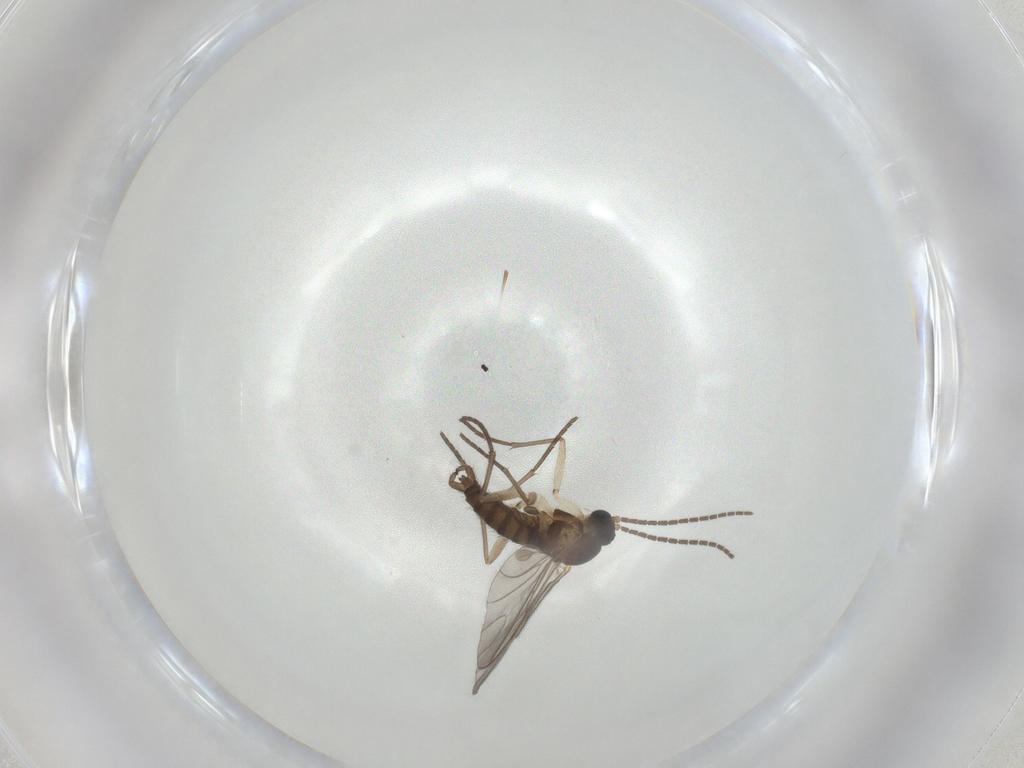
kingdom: Animalia
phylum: Arthropoda
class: Insecta
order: Diptera
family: Sciaridae
